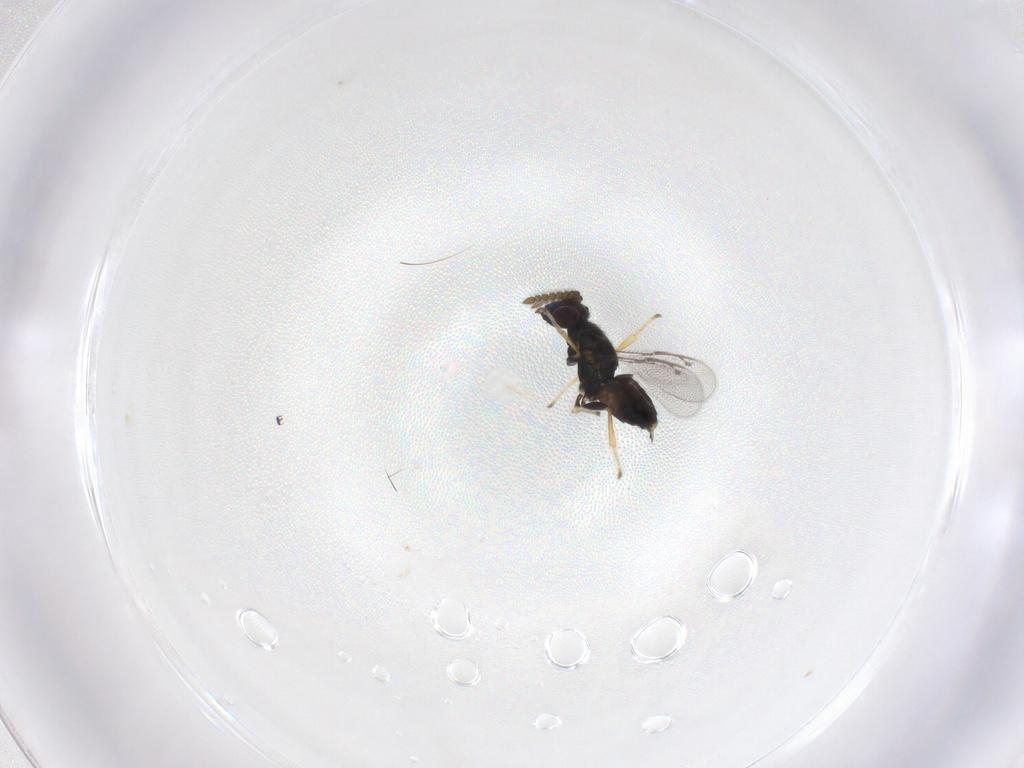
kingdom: Animalia
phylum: Arthropoda
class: Insecta
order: Hymenoptera
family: Pirenidae
